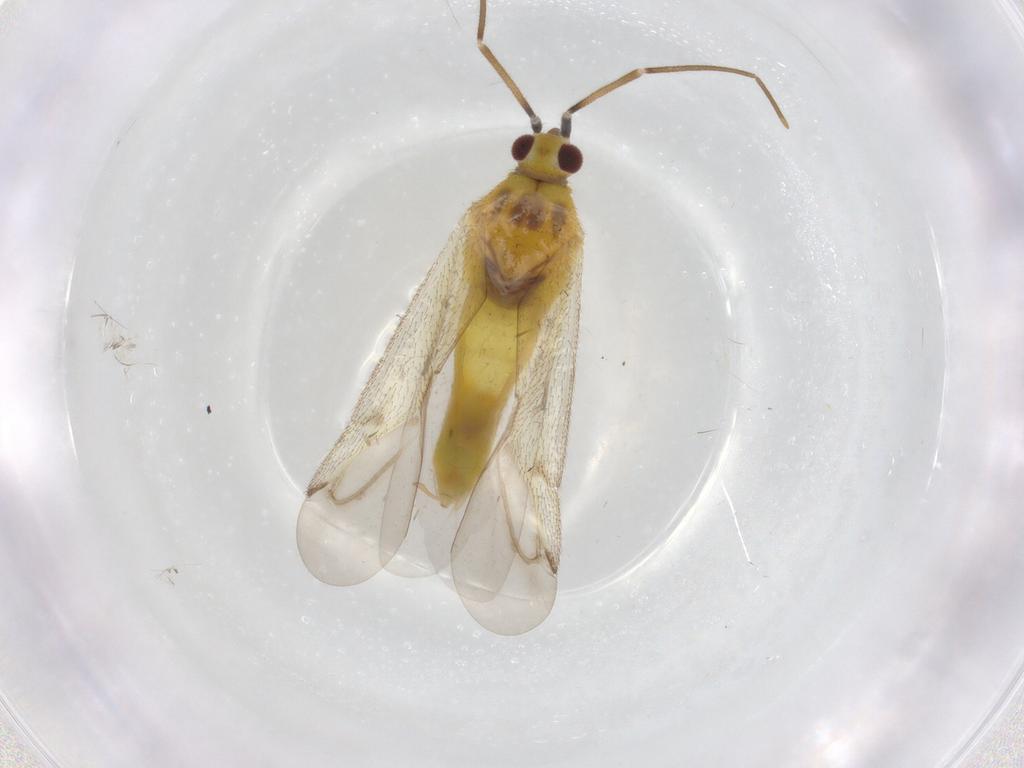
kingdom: Animalia
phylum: Arthropoda
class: Insecta
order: Hemiptera
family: Miridae
